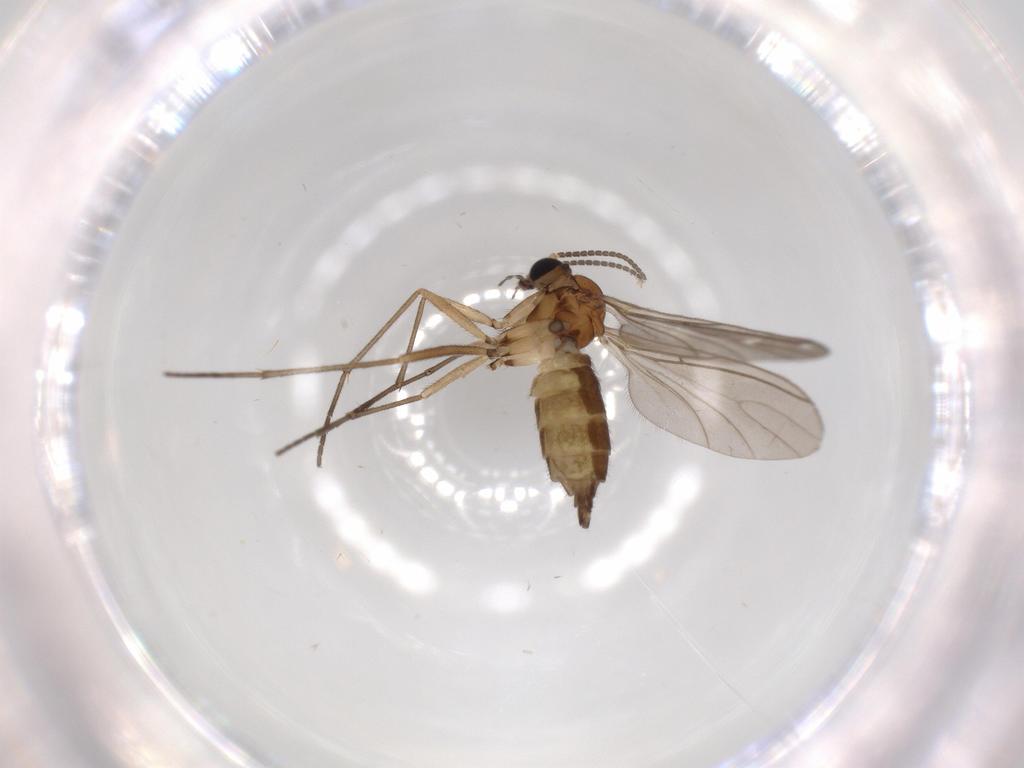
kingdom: Animalia
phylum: Arthropoda
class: Insecta
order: Diptera
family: Sciaridae
